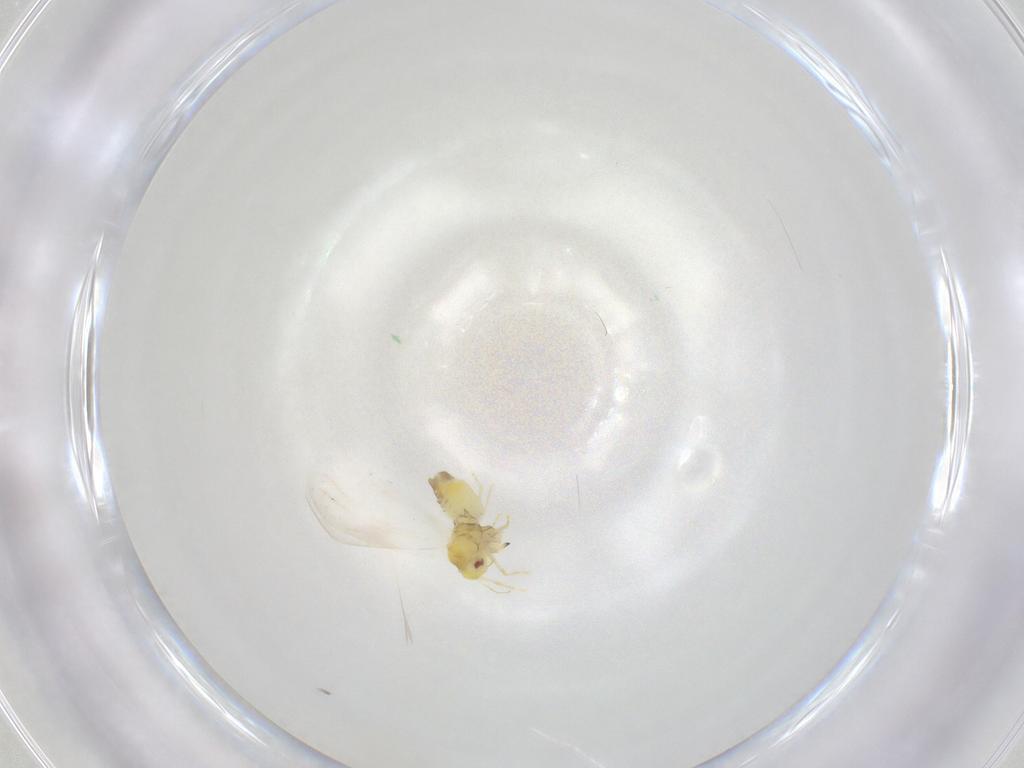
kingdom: Animalia
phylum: Arthropoda
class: Insecta
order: Hemiptera
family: Aleyrodidae
